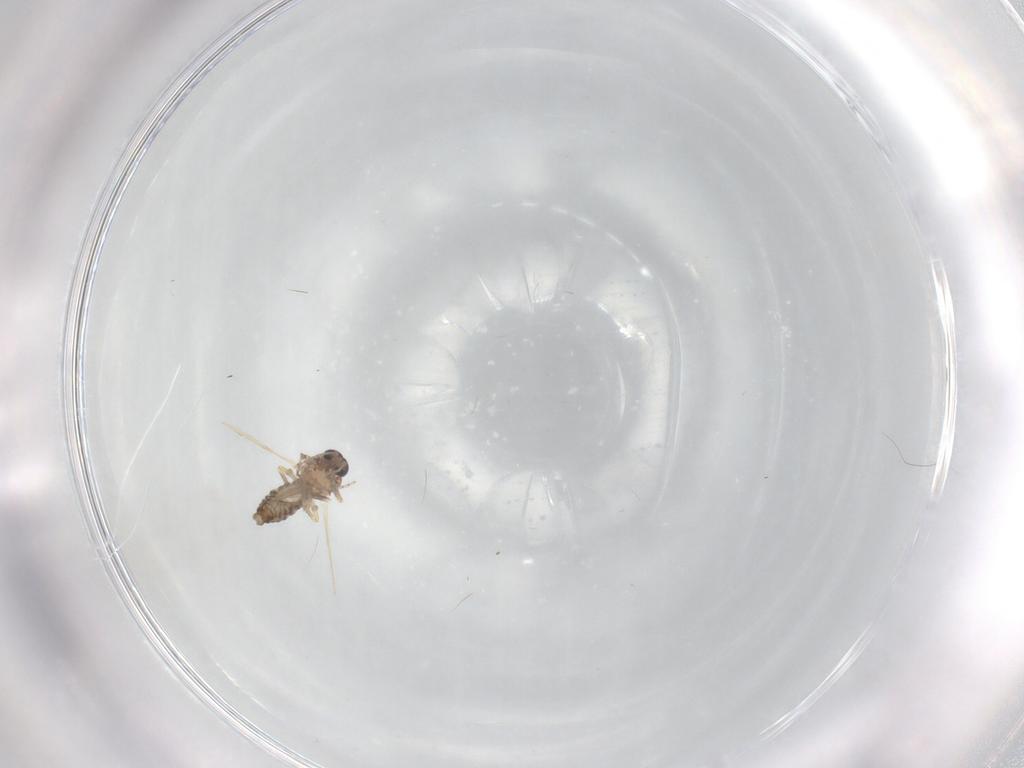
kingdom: Animalia
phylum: Arthropoda
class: Insecta
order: Diptera
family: Ceratopogonidae
